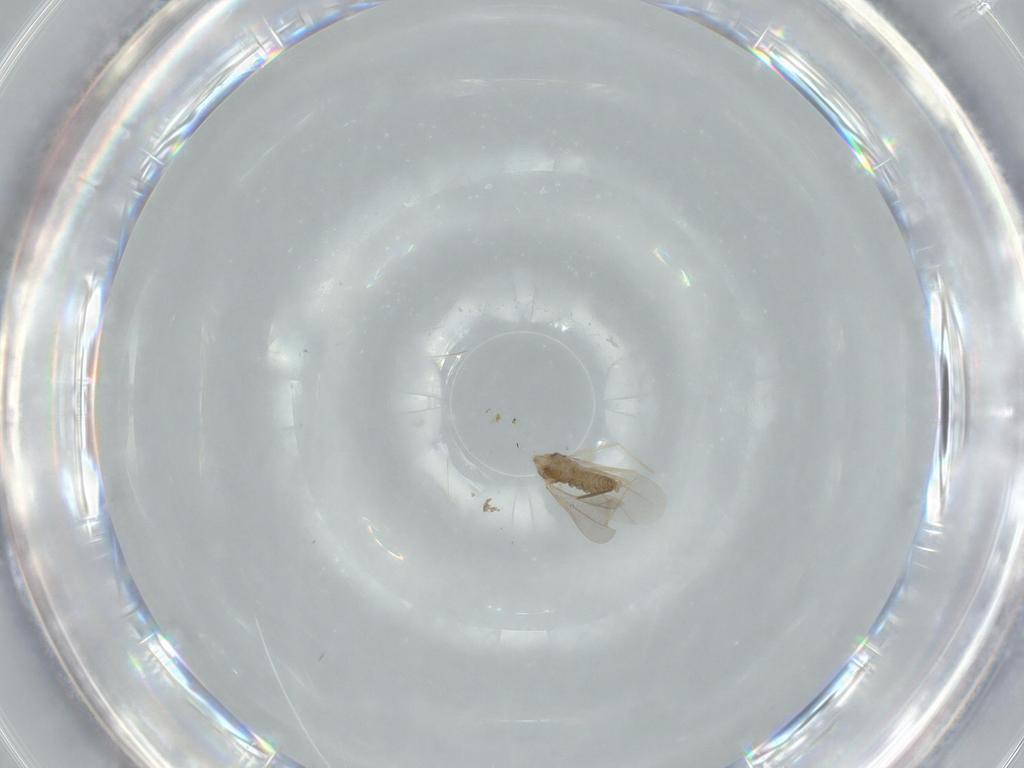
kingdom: Animalia
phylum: Arthropoda
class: Insecta
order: Diptera
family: Cecidomyiidae
